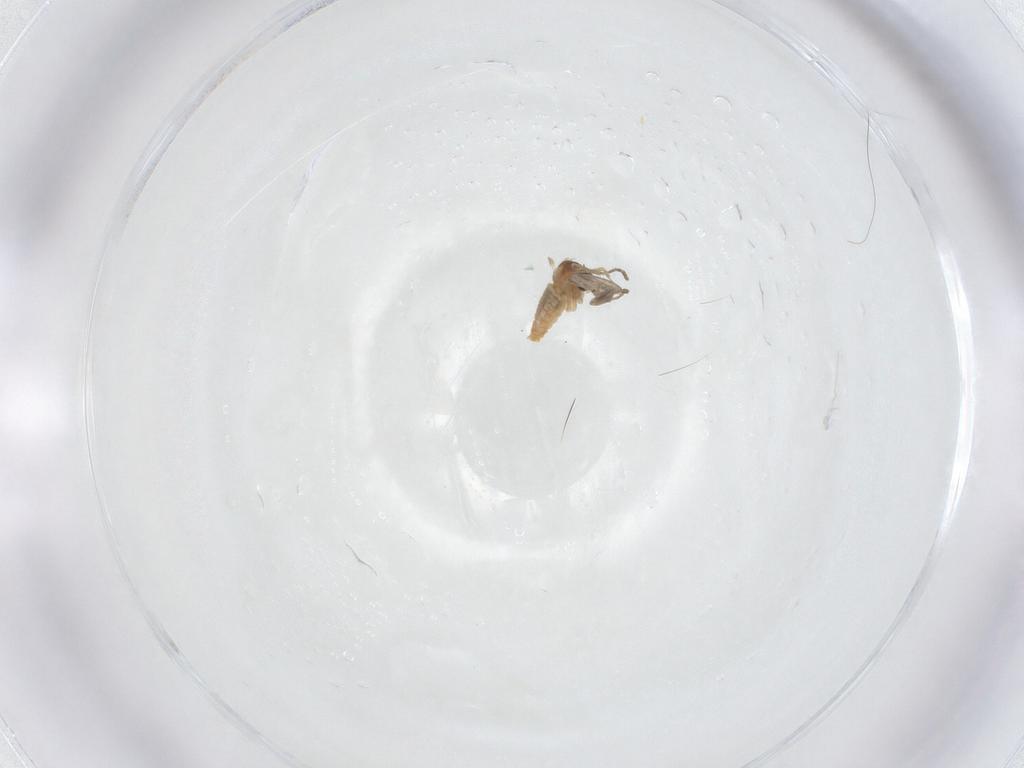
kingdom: Animalia
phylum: Arthropoda
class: Insecta
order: Diptera
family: Cecidomyiidae
